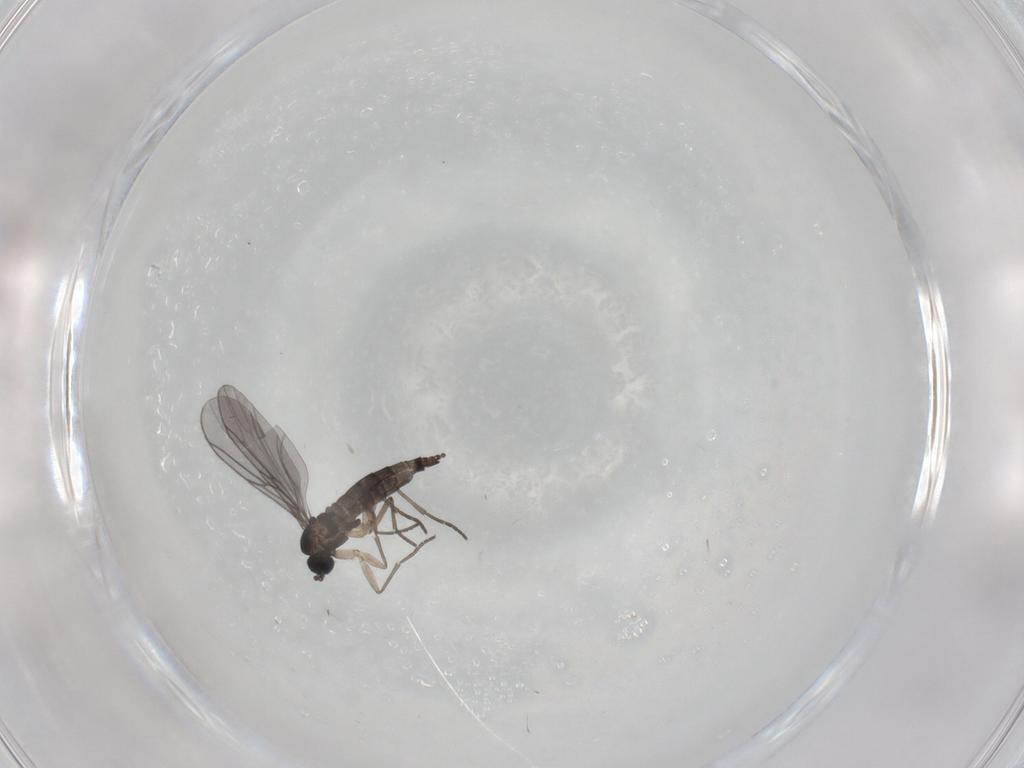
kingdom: Animalia
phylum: Arthropoda
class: Insecta
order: Diptera
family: Sciaridae
